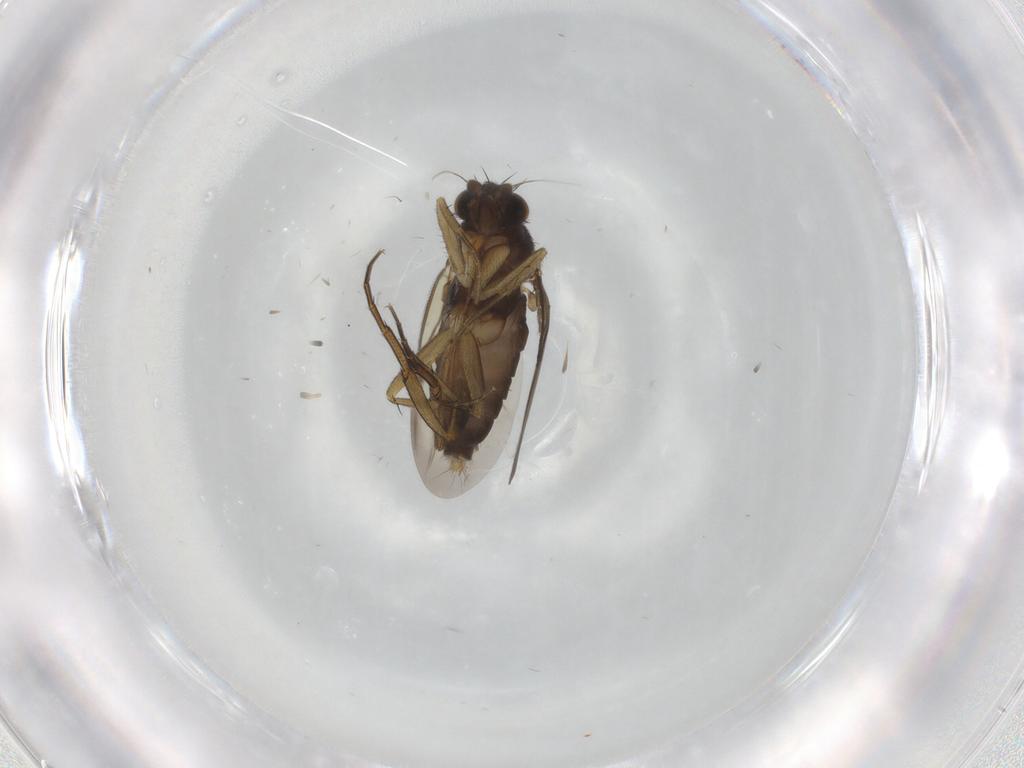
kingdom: Animalia
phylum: Arthropoda
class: Insecta
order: Diptera
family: Phoridae
